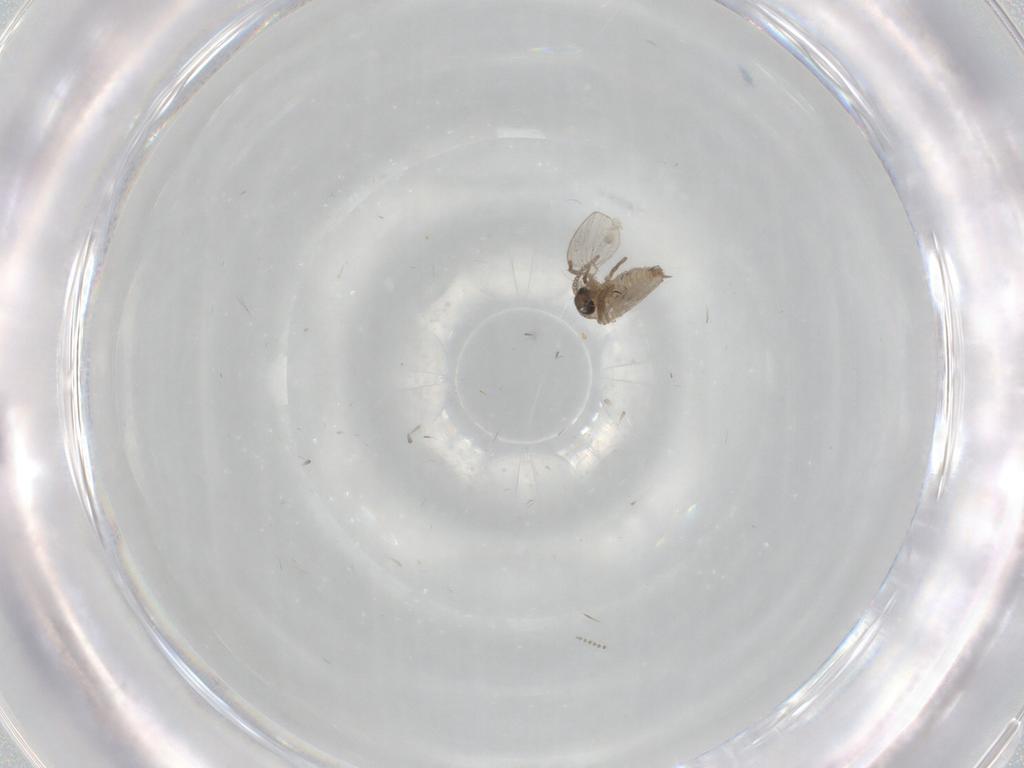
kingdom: Animalia
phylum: Arthropoda
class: Insecta
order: Diptera
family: Psychodidae
